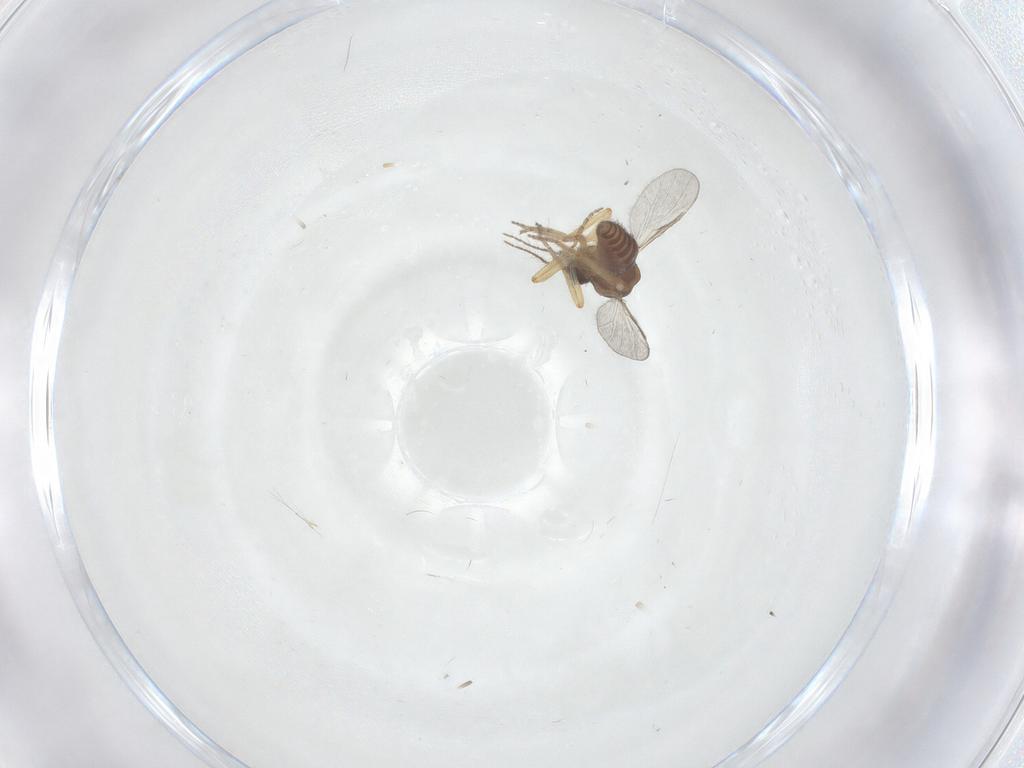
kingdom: Animalia
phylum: Arthropoda
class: Insecta
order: Diptera
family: Ceratopogonidae
